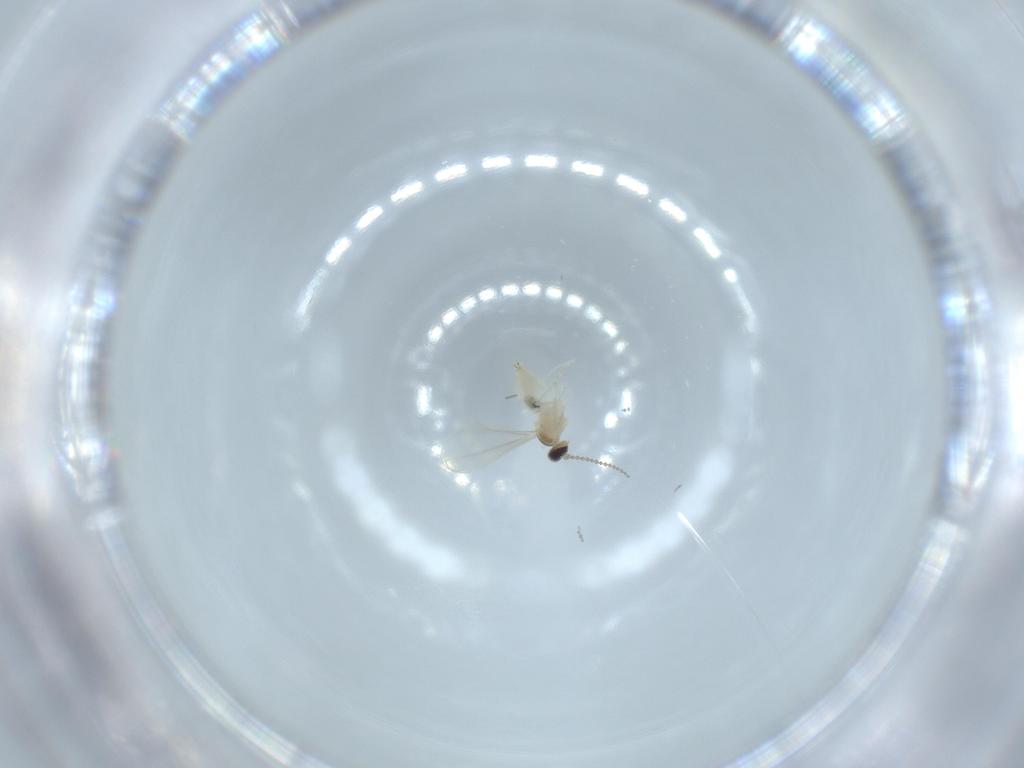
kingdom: Animalia
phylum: Arthropoda
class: Insecta
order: Diptera
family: Cecidomyiidae
